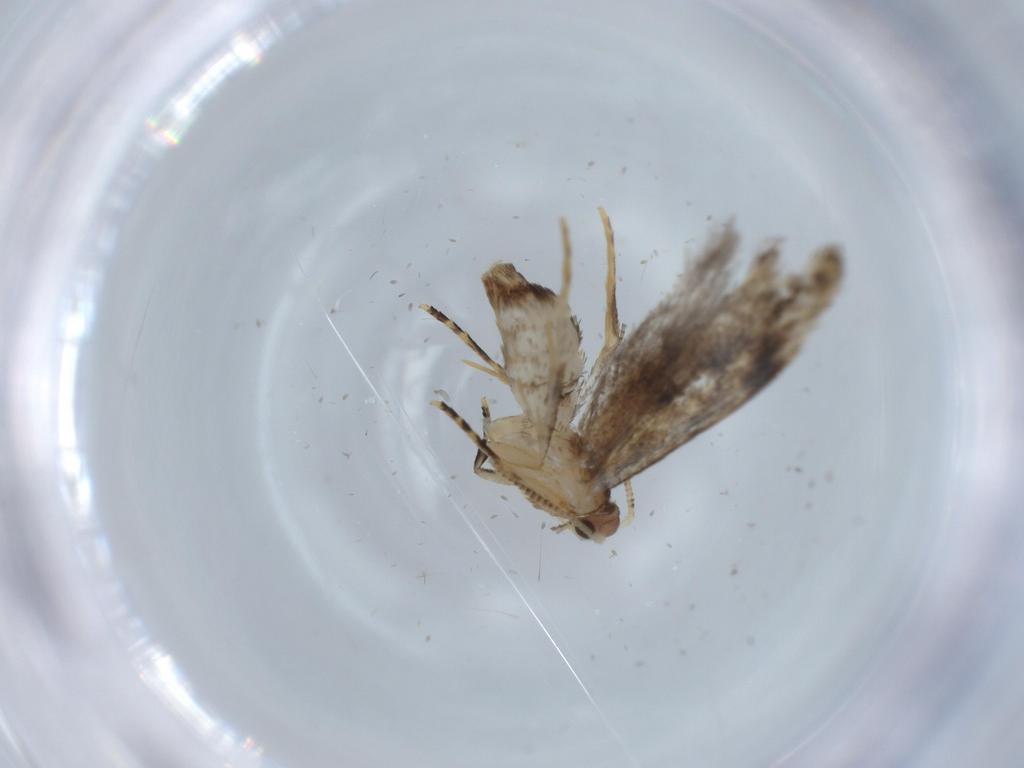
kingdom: Animalia
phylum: Arthropoda
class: Insecta
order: Lepidoptera
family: Tineidae
